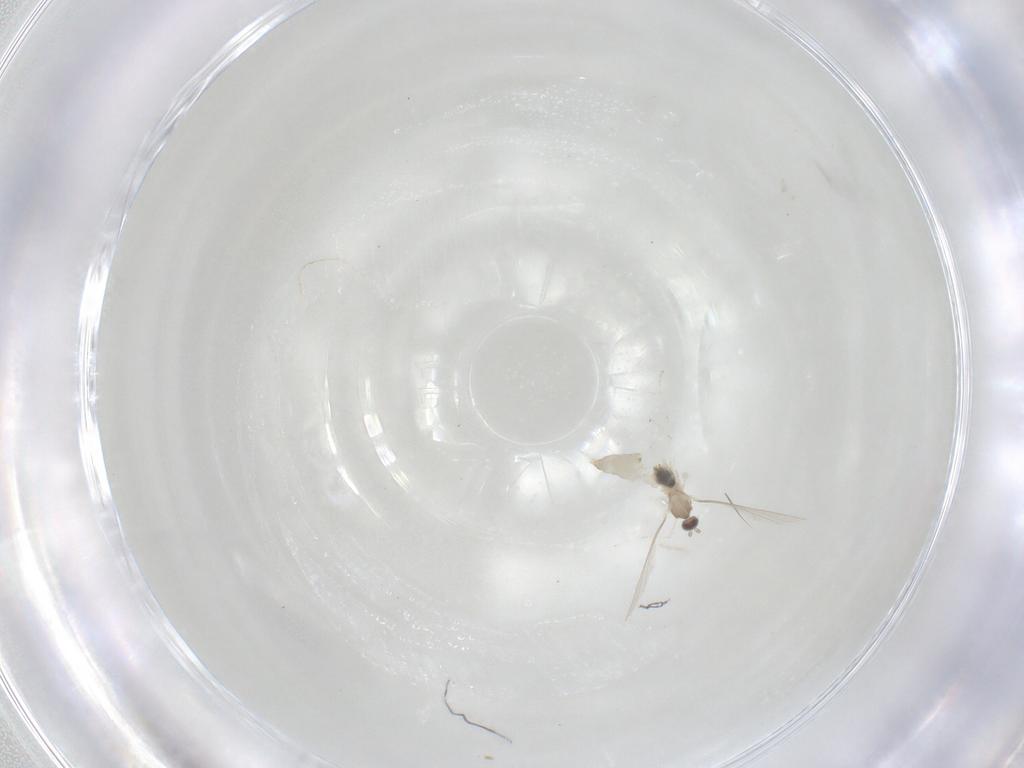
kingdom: Animalia
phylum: Arthropoda
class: Insecta
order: Diptera
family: Cecidomyiidae
